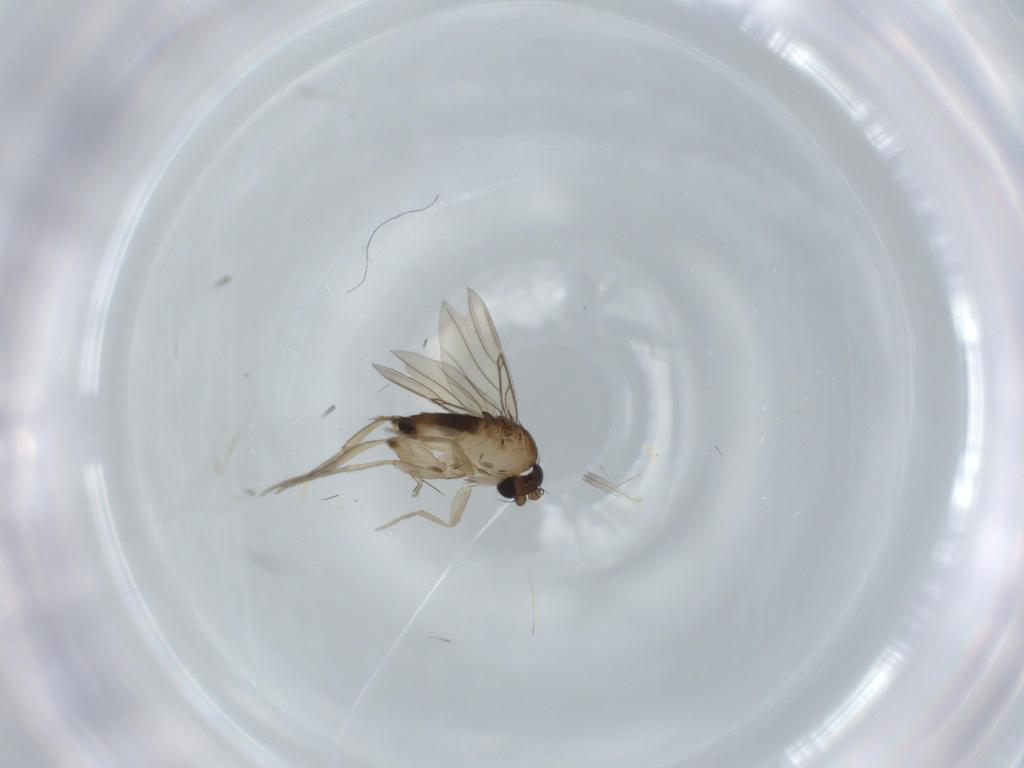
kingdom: Animalia
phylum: Arthropoda
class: Insecta
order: Diptera
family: Phoridae
